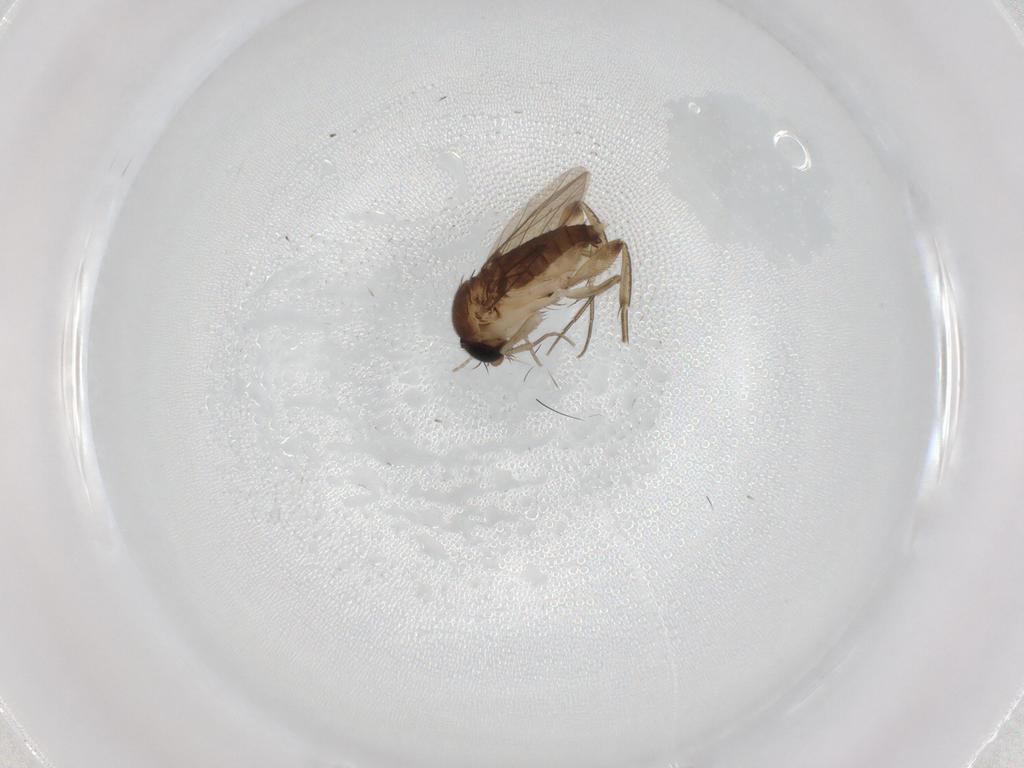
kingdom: Animalia
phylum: Arthropoda
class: Insecta
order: Diptera
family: Phoridae
